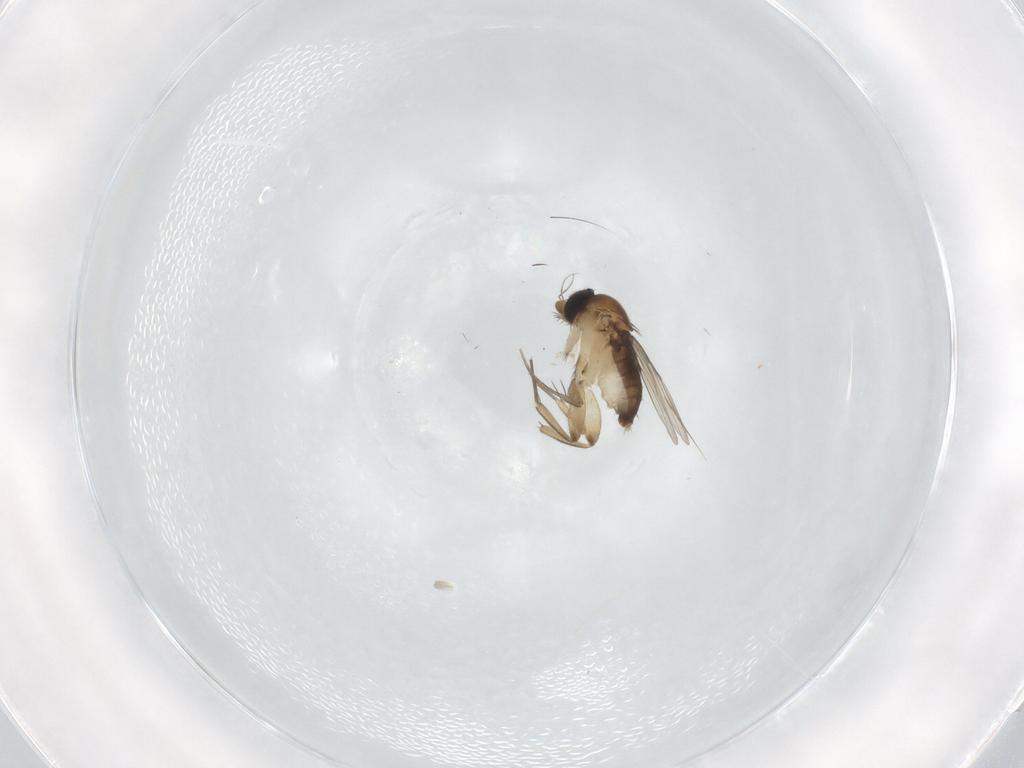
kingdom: Animalia
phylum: Arthropoda
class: Insecta
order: Diptera
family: Phoridae
